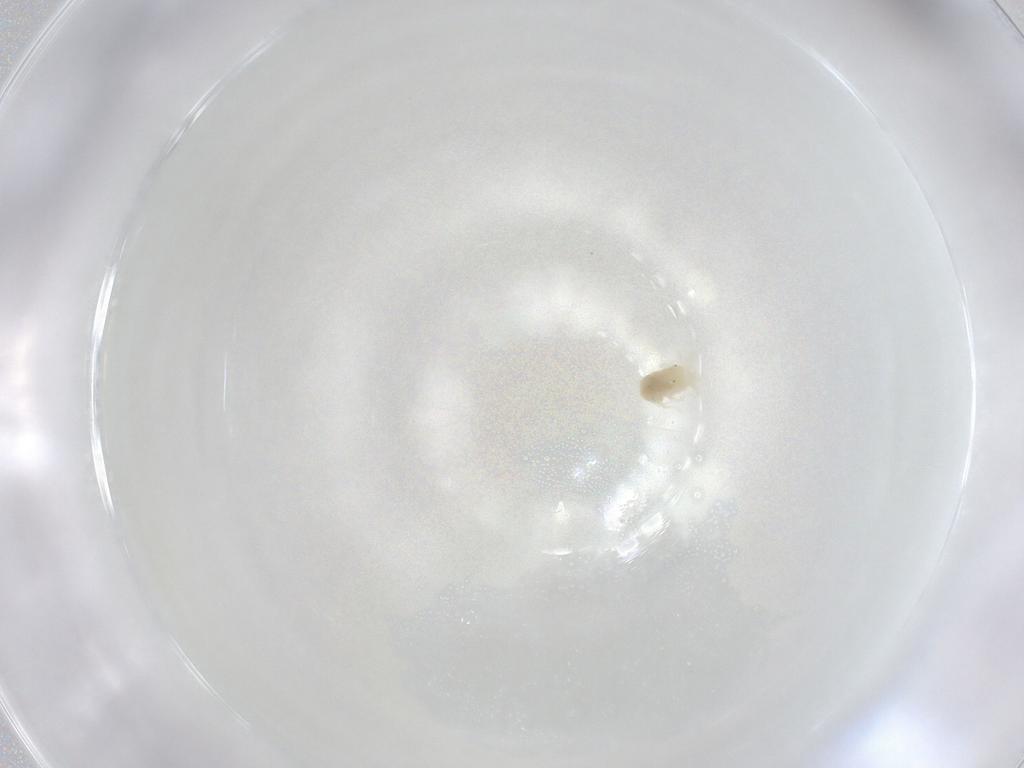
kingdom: Animalia
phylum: Arthropoda
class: Arachnida
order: Trombidiformes
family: Anystidae
